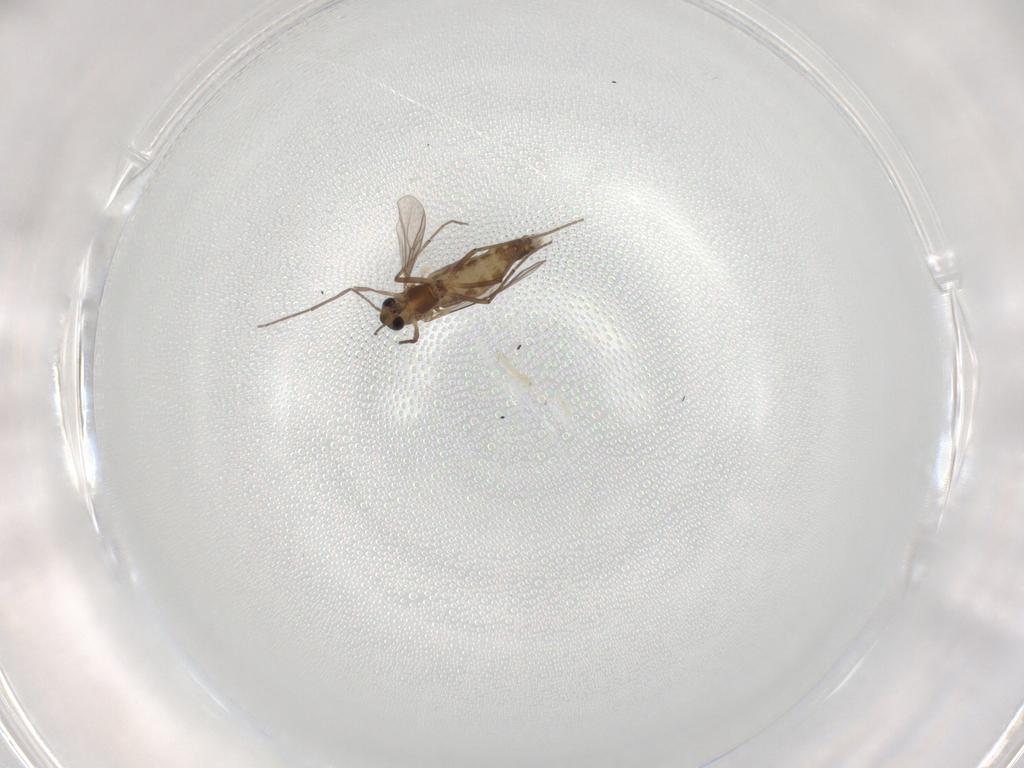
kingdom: Animalia
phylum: Arthropoda
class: Insecta
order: Diptera
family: Chironomidae
